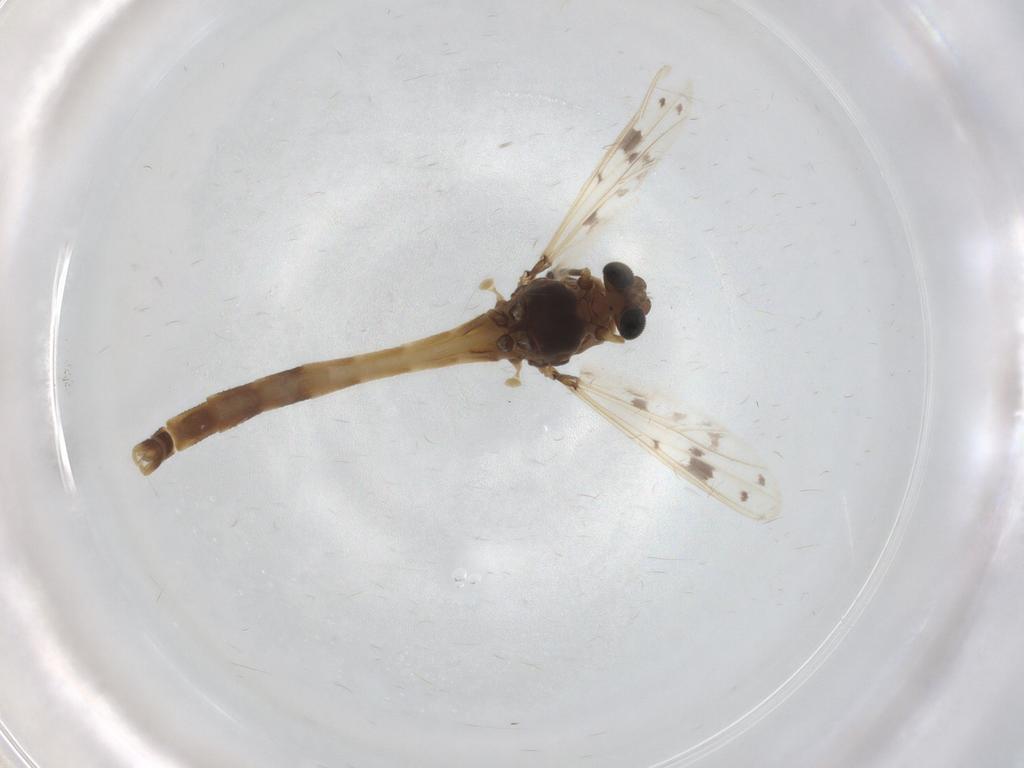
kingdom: Animalia
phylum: Arthropoda
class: Insecta
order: Diptera
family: Chironomidae
